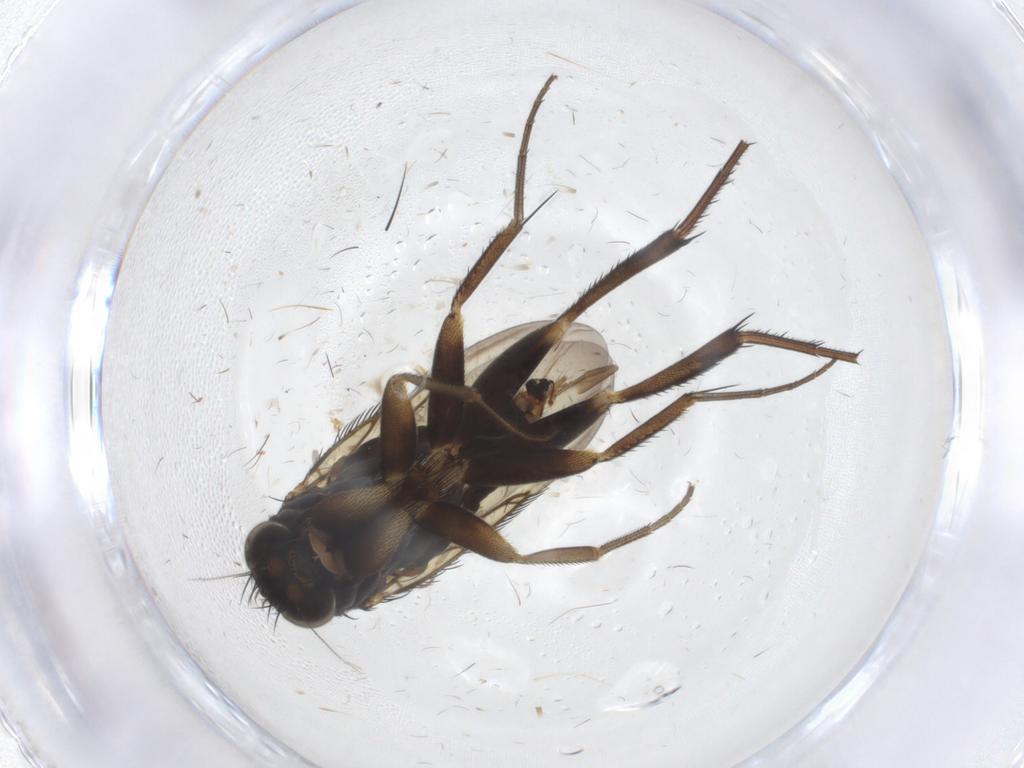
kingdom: Animalia
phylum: Arthropoda
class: Insecta
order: Diptera
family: Phoridae
